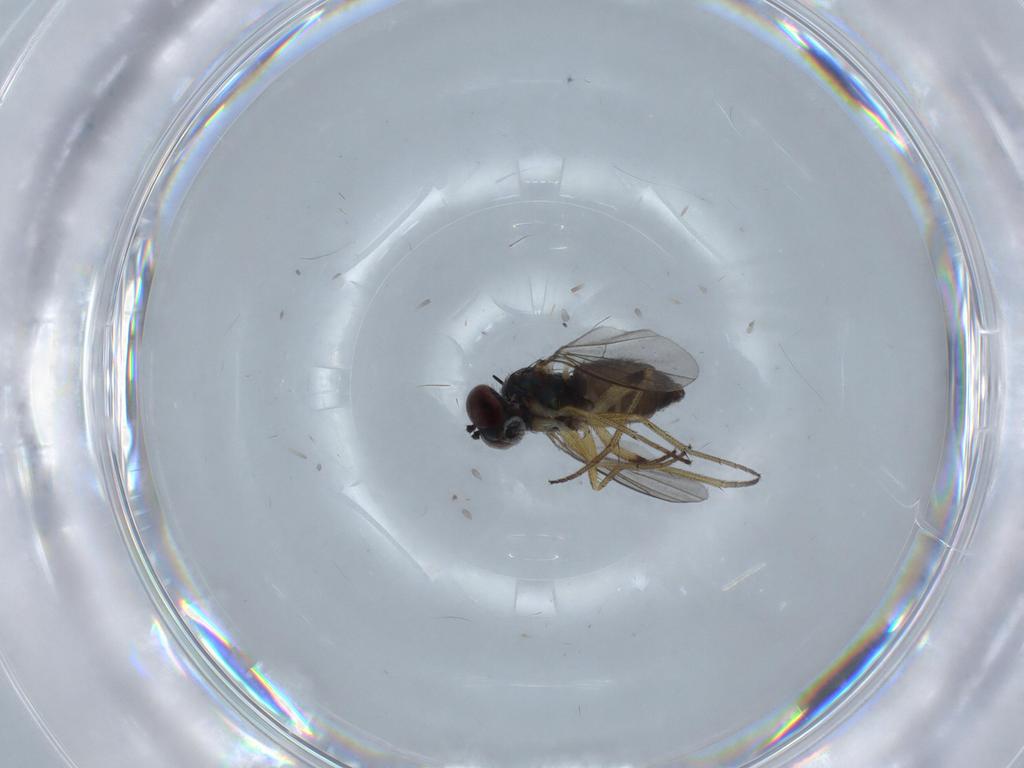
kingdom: Animalia
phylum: Arthropoda
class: Insecta
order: Diptera
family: Dolichopodidae
